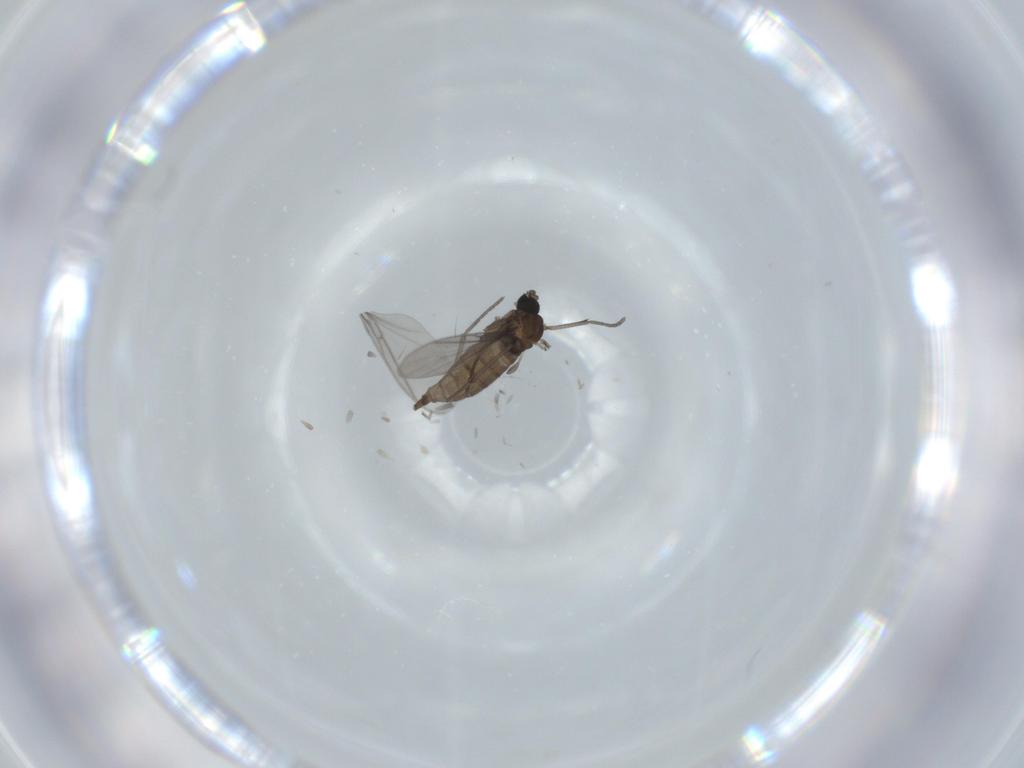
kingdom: Animalia
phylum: Arthropoda
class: Insecta
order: Diptera
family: Sciaridae
